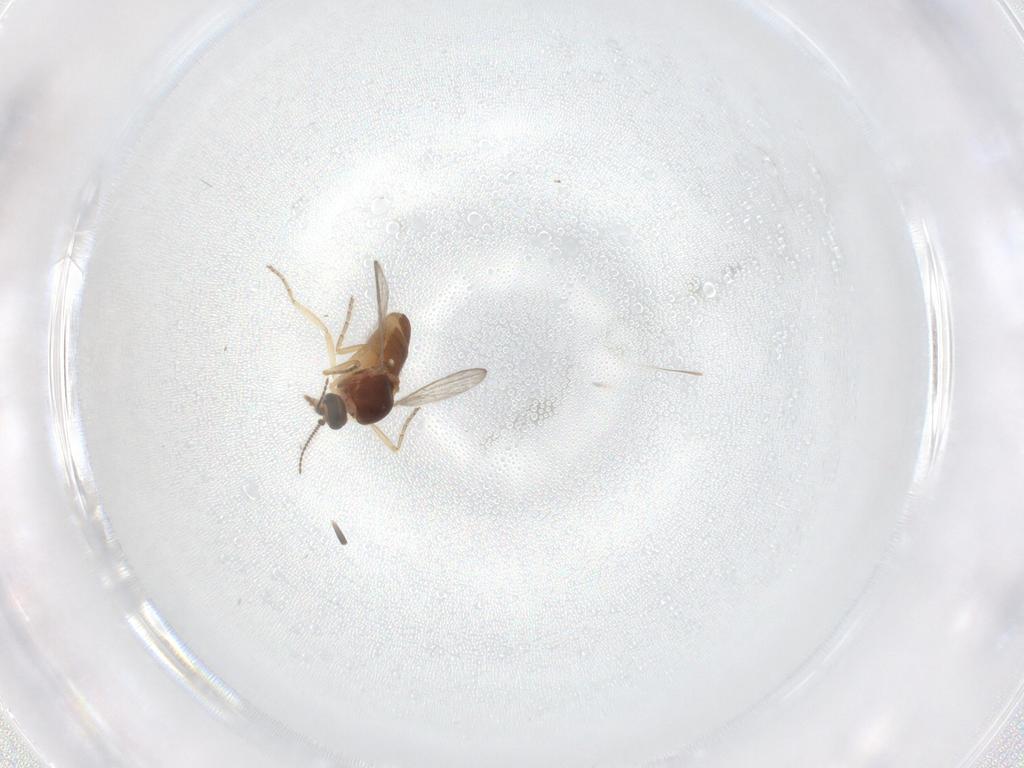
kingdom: Animalia
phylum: Arthropoda
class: Insecta
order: Diptera
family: Ceratopogonidae
